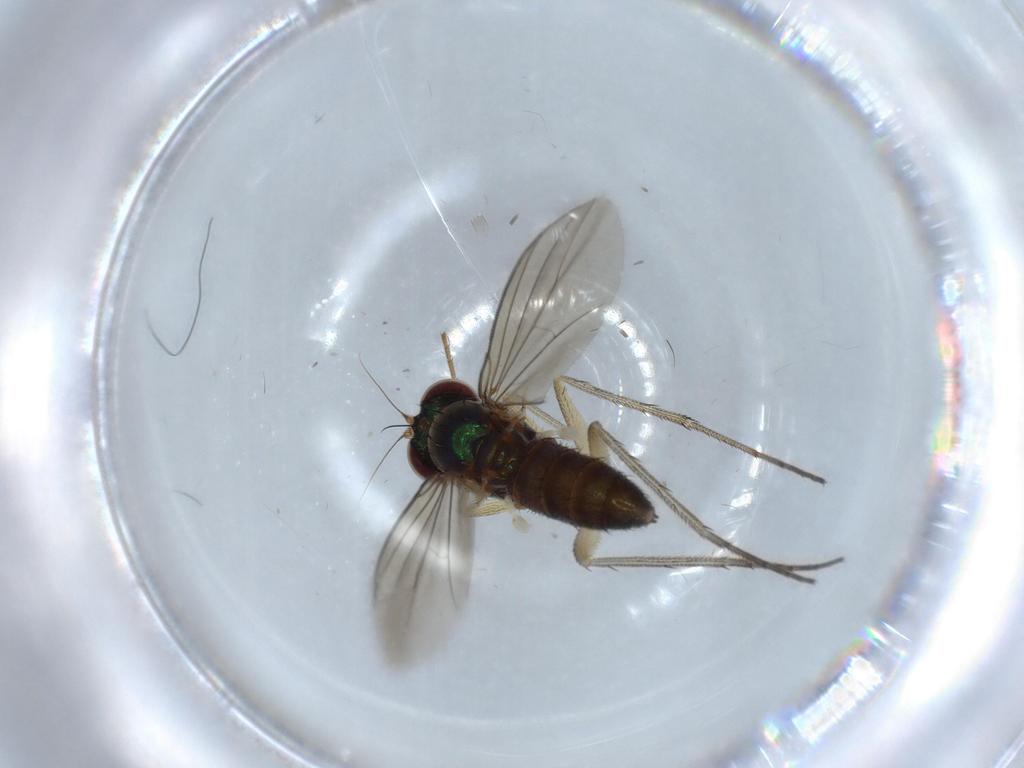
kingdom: Animalia
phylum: Arthropoda
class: Insecta
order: Diptera
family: Dolichopodidae
